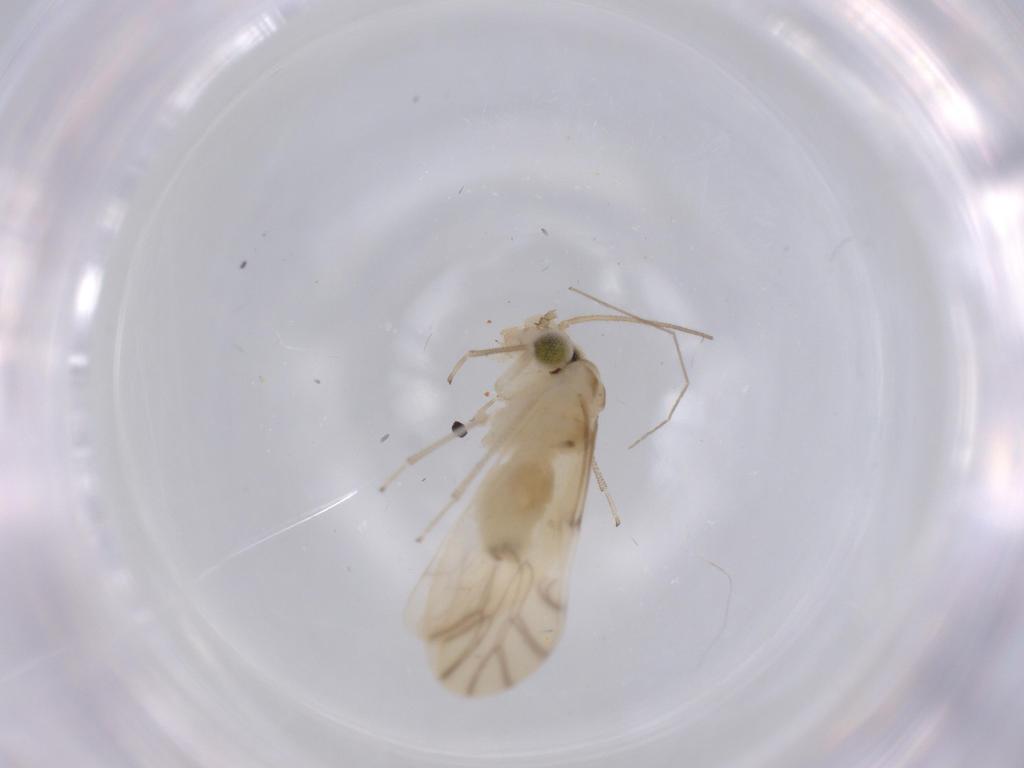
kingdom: Animalia
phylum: Arthropoda
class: Insecta
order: Psocodea
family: Caeciliusidae
